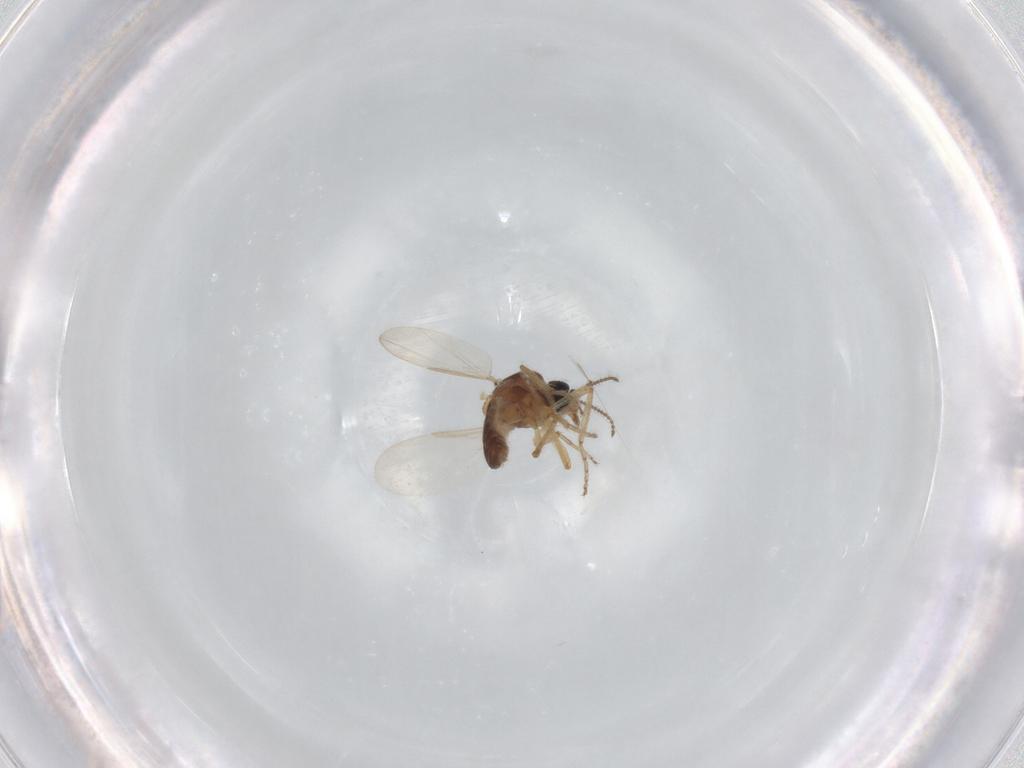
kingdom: Animalia
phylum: Arthropoda
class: Insecta
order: Diptera
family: Ceratopogonidae
